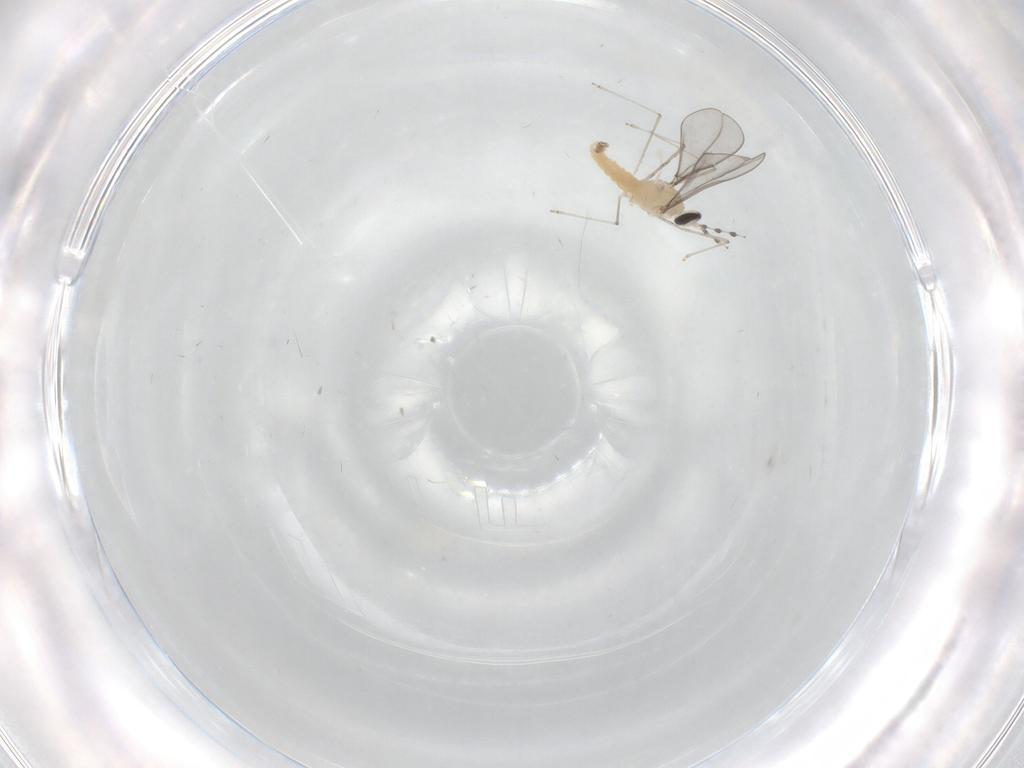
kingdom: Animalia
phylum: Arthropoda
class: Insecta
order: Diptera
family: Cecidomyiidae
